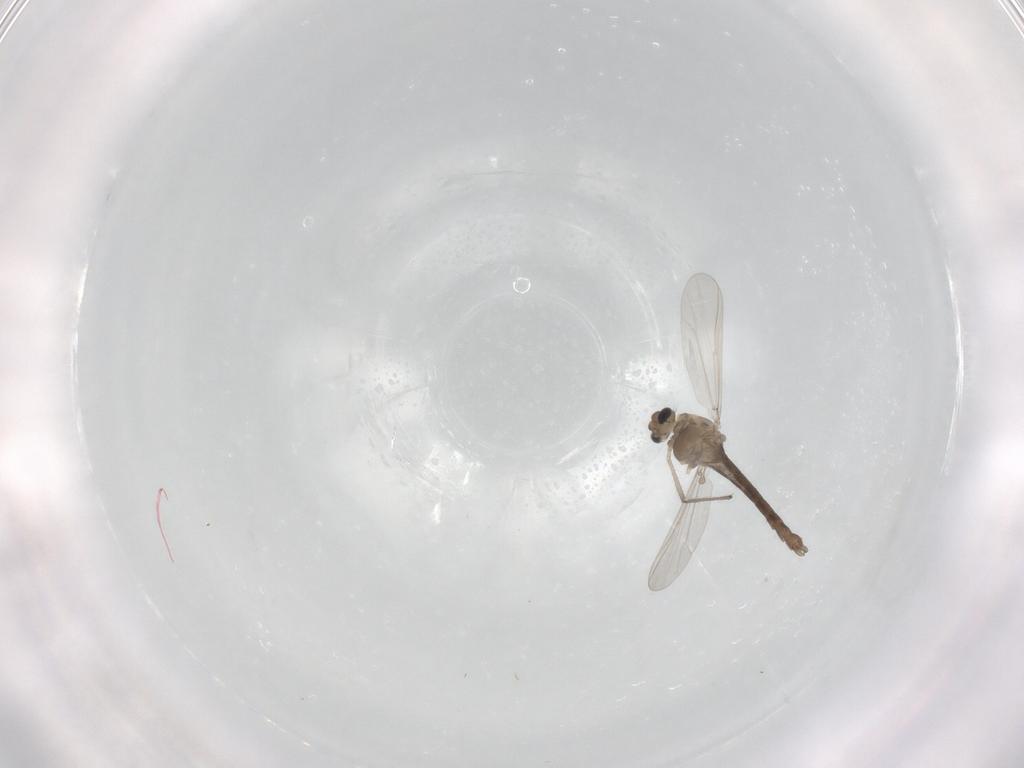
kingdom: Animalia
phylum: Arthropoda
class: Insecta
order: Diptera
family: Chironomidae
